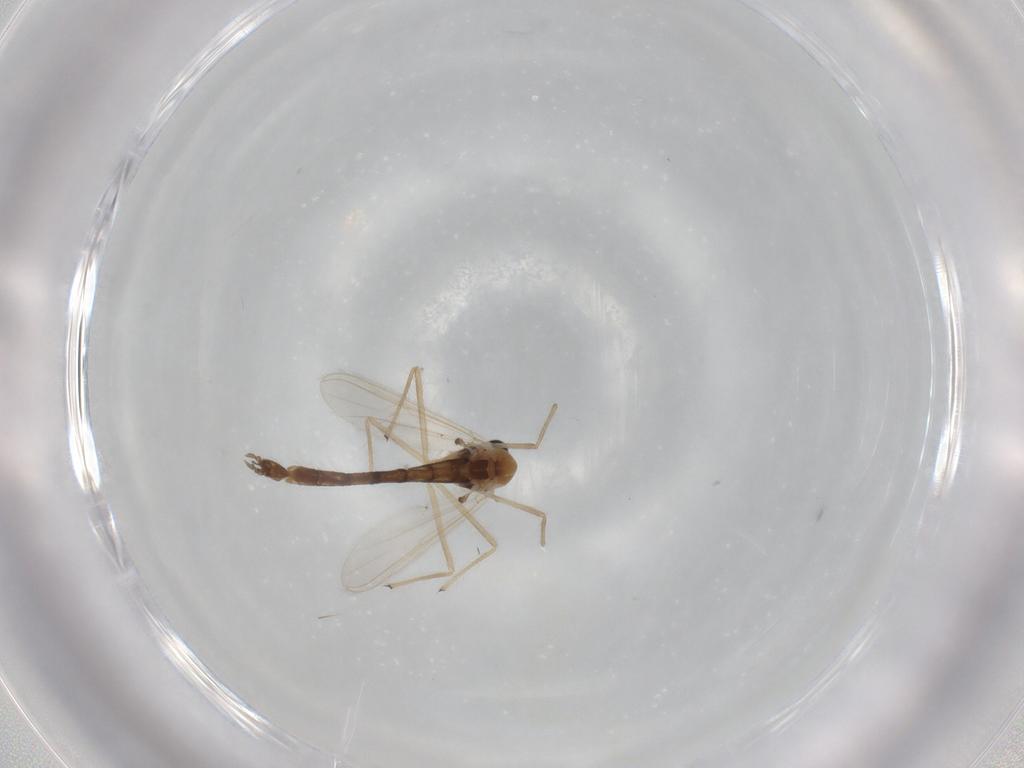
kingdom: Animalia
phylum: Arthropoda
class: Insecta
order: Diptera
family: Chironomidae
